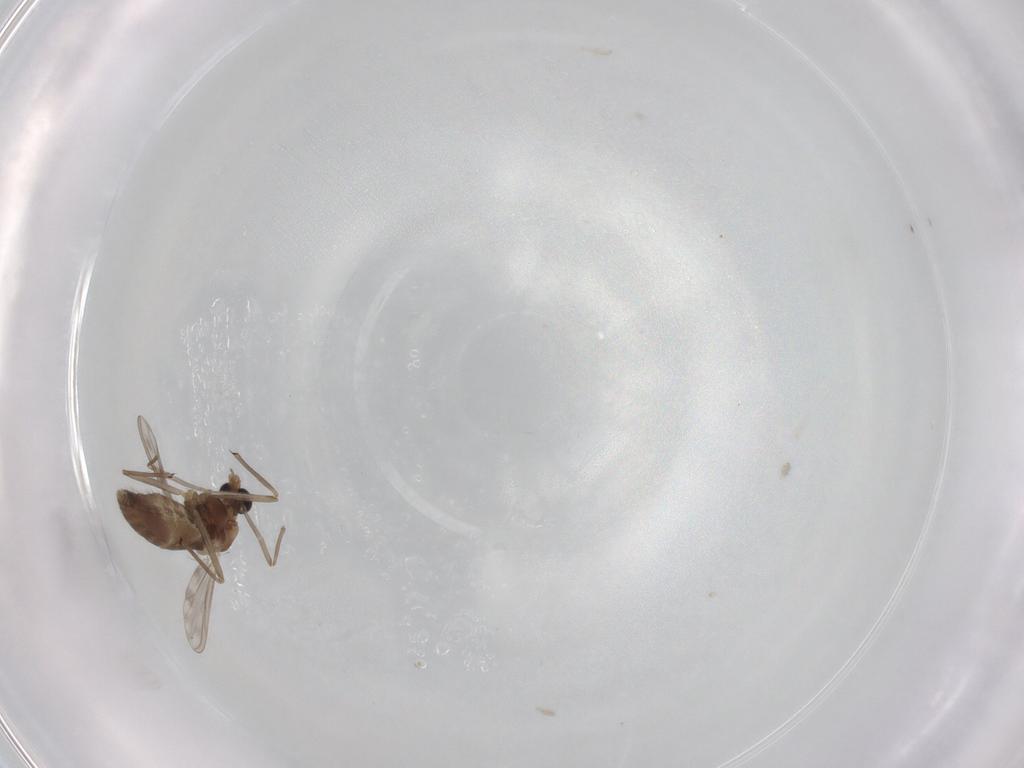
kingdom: Animalia
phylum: Arthropoda
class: Insecta
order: Diptera
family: Chironomidae
